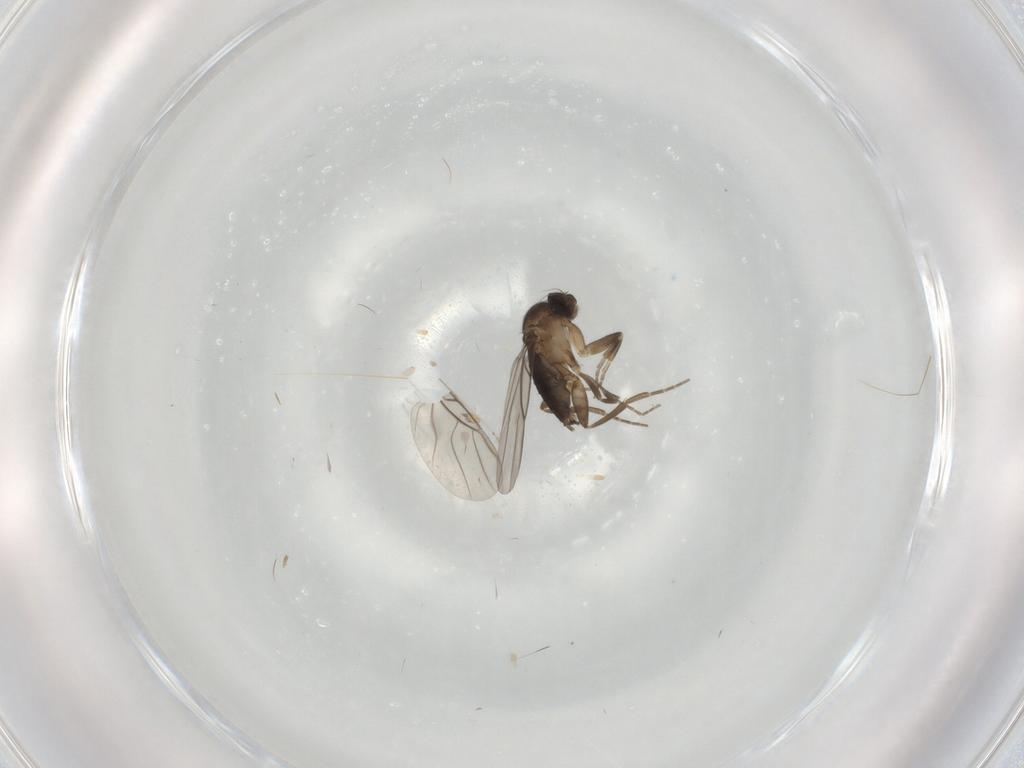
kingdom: Animalia
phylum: Arthropoda
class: Insecta
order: Diptera
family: Cecidomyiidae
